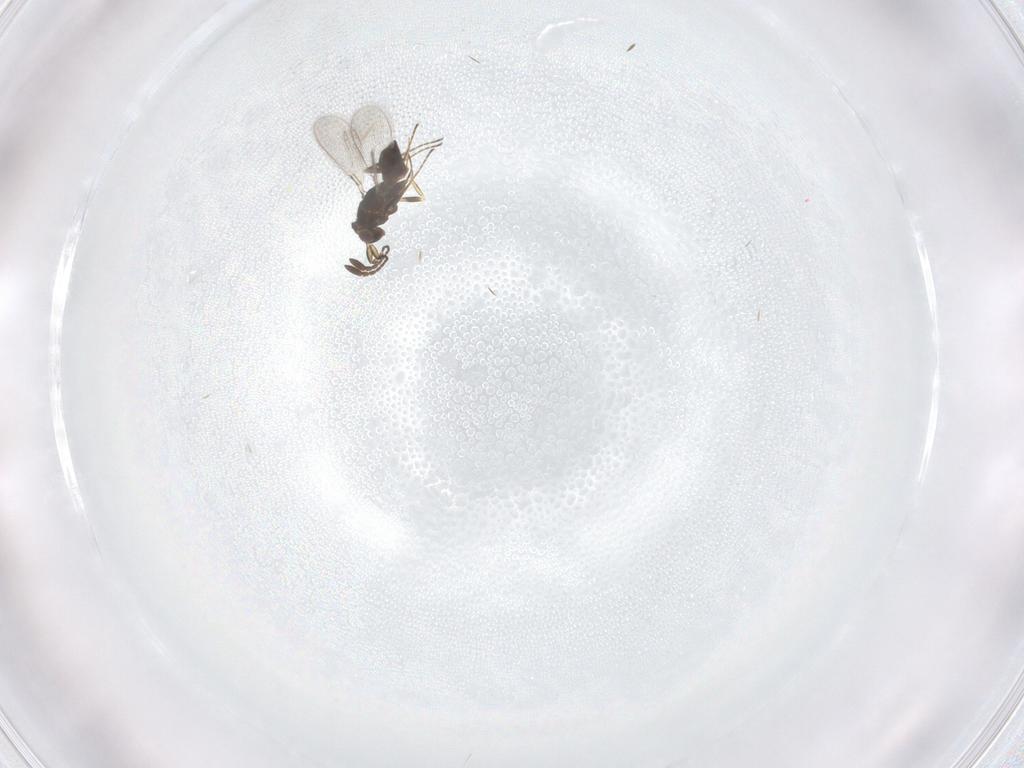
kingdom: Animalia
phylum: Arthropoda
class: Insecta
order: Hymenoptera
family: Mymaridae
